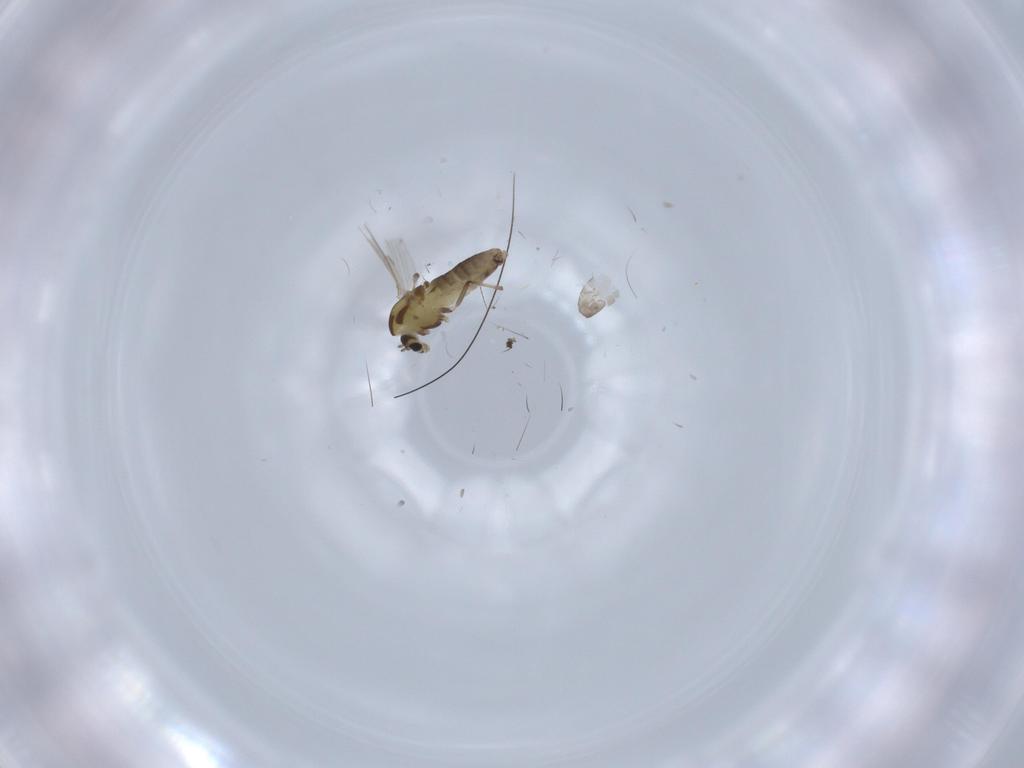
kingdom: Animalia
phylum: Arthropoda
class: Insecta
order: Diptera
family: Chironomidae
